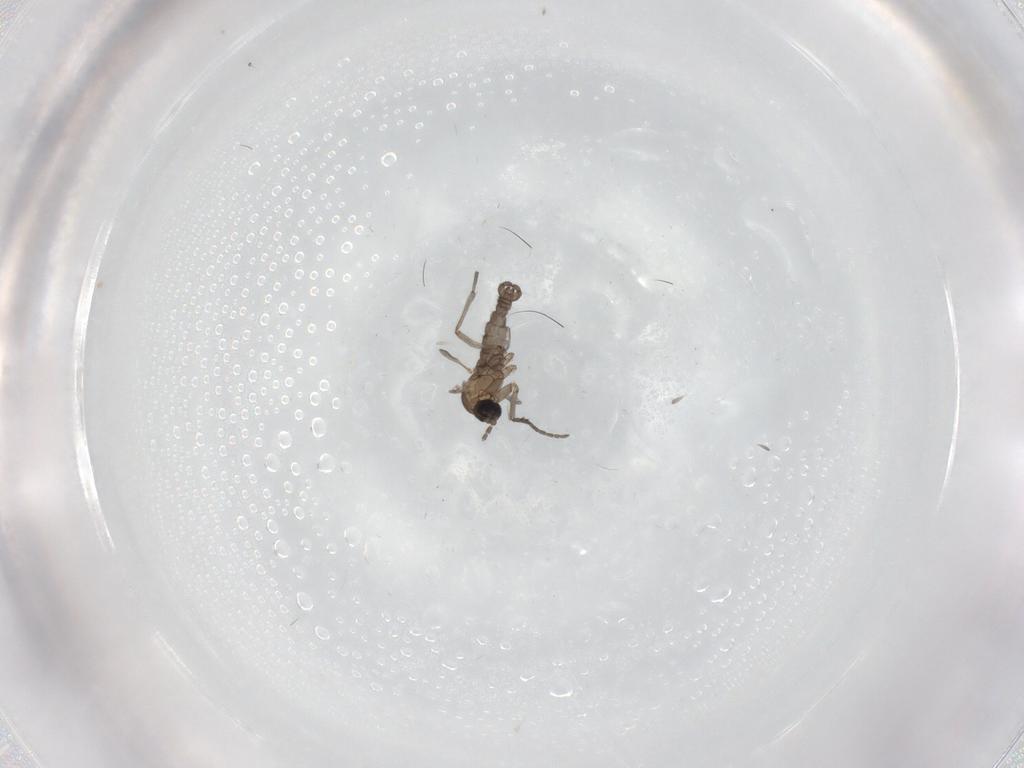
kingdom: Animalia
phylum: Arthropoda
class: Insecta
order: Diptera
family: Sciaridae
